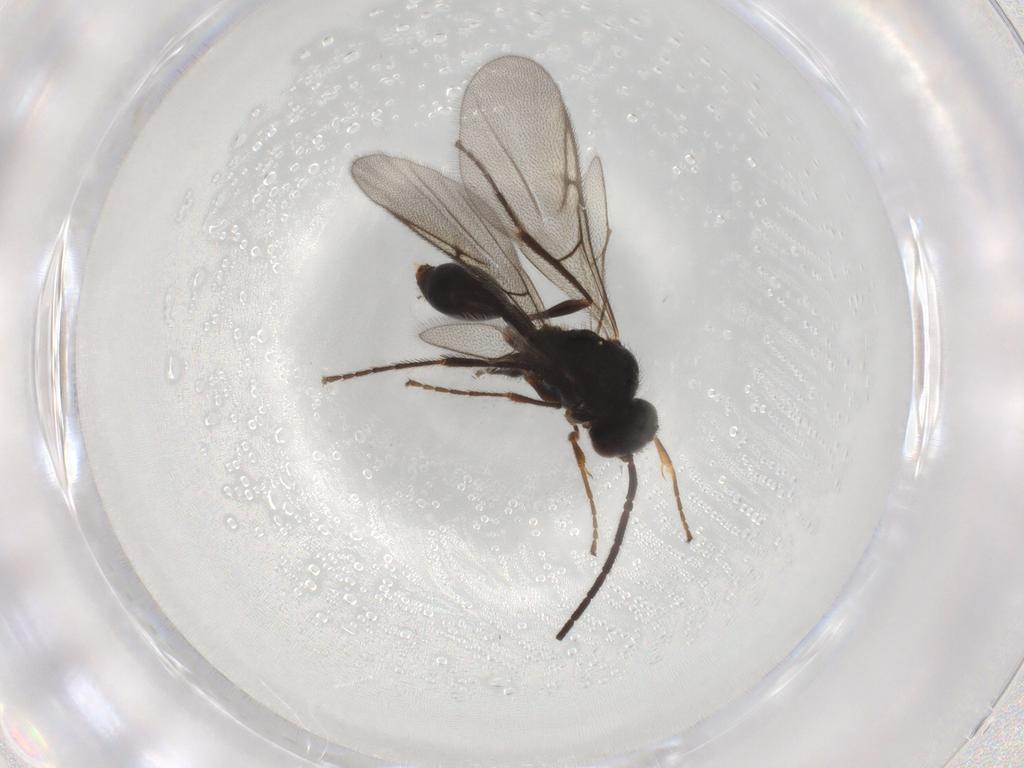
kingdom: Animalia
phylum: Arthropoda
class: Insecta
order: Hymenoptera
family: Diapriidae
